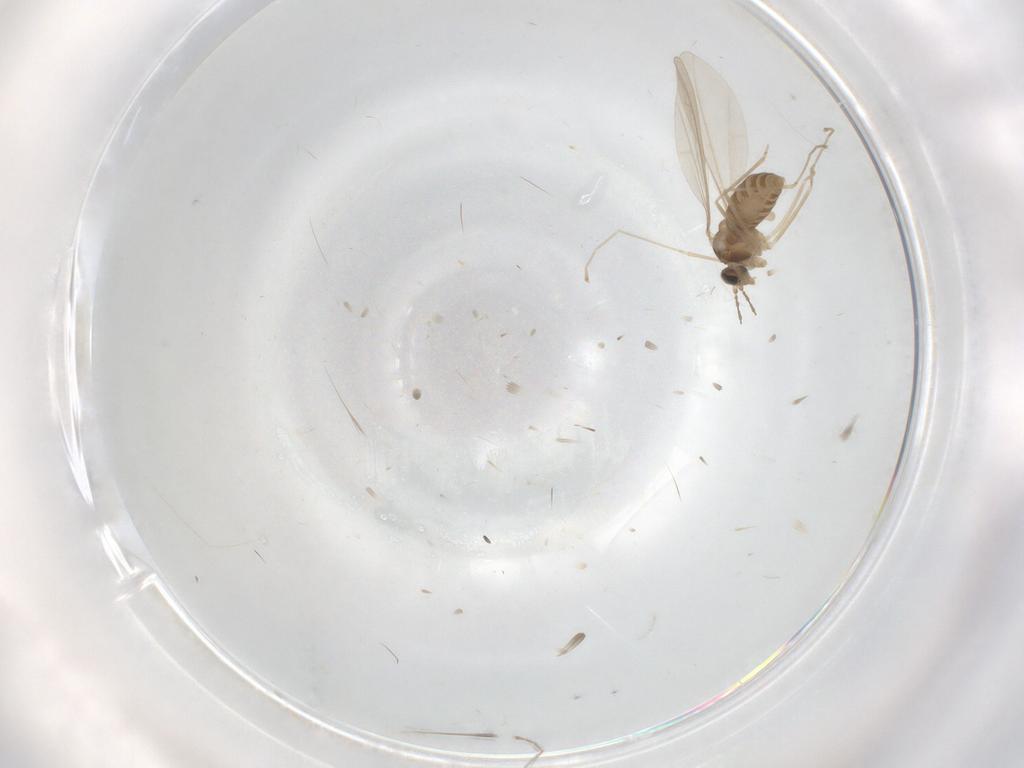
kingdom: Animalia
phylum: Arthropoda
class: Insecta
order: Diptera
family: Cecidomyiidae
